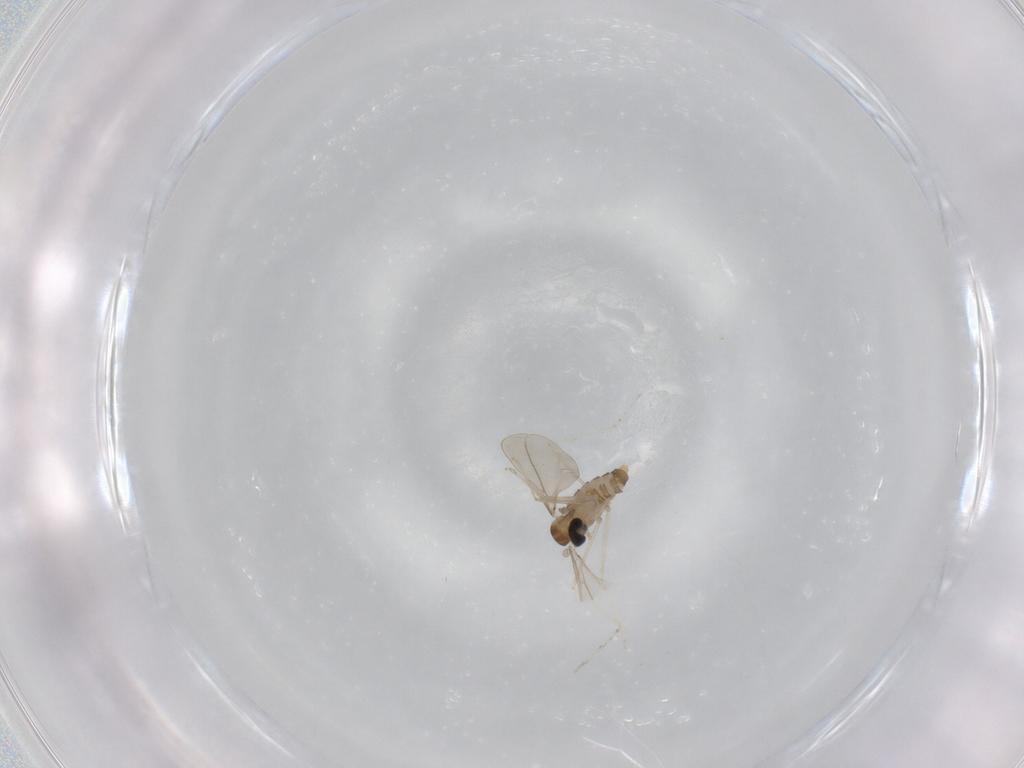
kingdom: Animalia
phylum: Arthropoda
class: Insecta
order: Diptera
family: Cecidomyiidae
